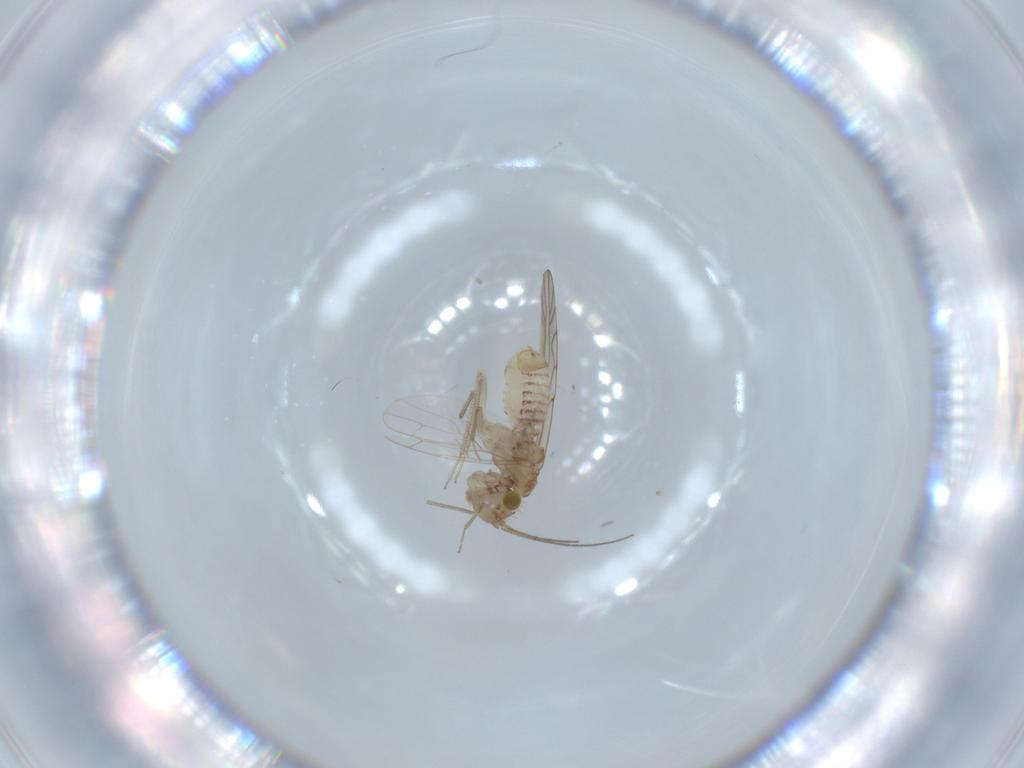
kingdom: Animalia
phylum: Arthropoda
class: Insecta
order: Psocodea
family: Lachesillidae
